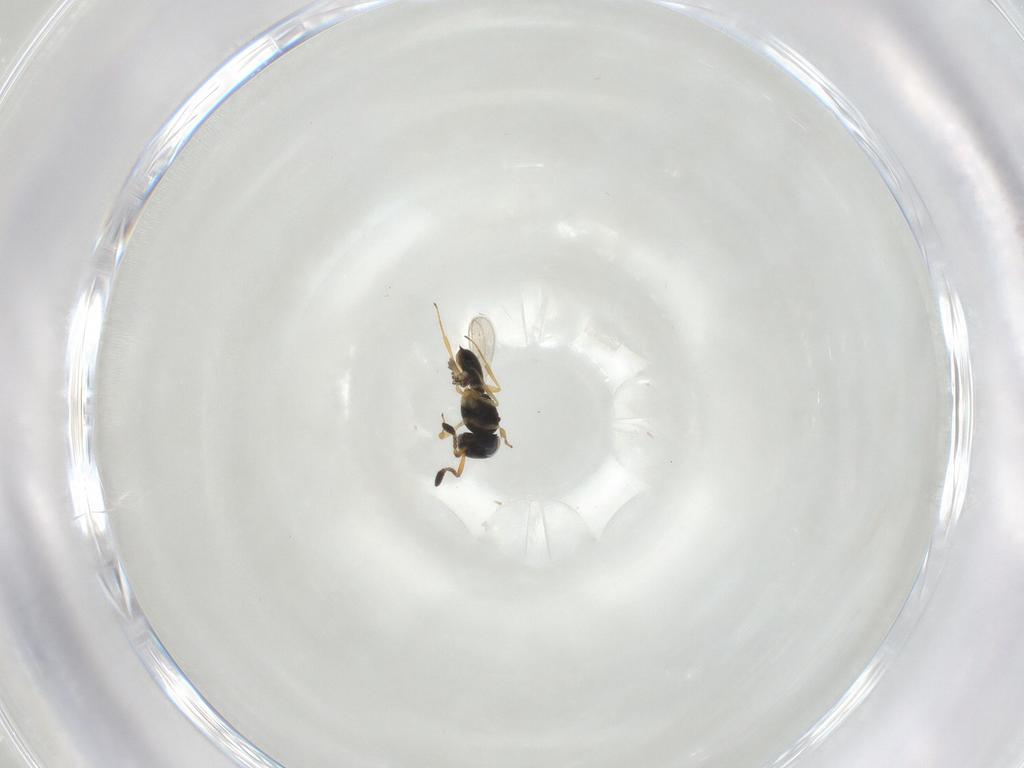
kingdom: Animalia
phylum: Arthropoda
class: Insecta
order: Hymenoptera
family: Scelionidae
